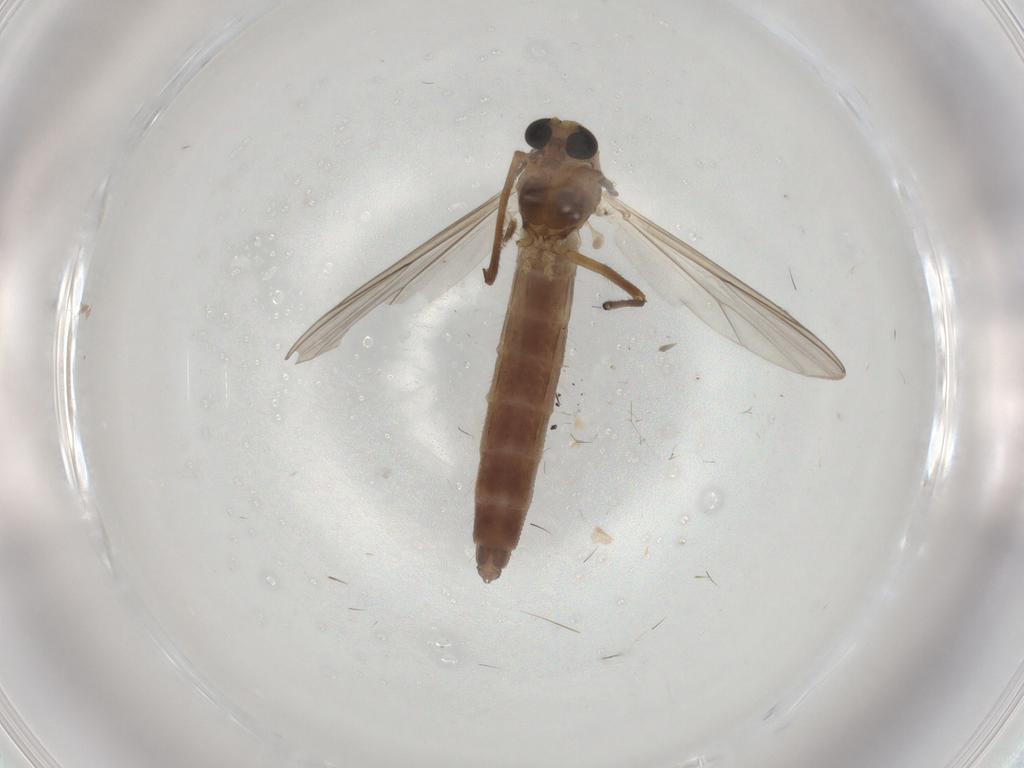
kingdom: Animalia
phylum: Arthropoda
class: Insecta
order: Diptera
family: Chironomidae
